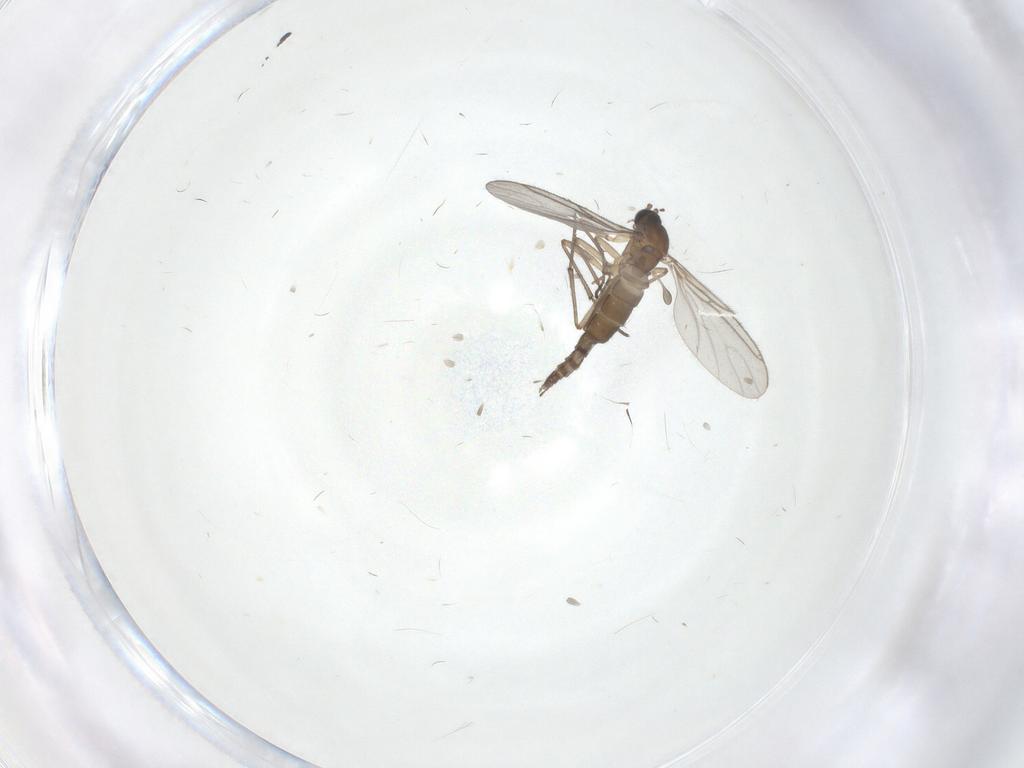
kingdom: Animalia
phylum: Arthropoda
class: Insecta
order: Diptera
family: Sciaridae
